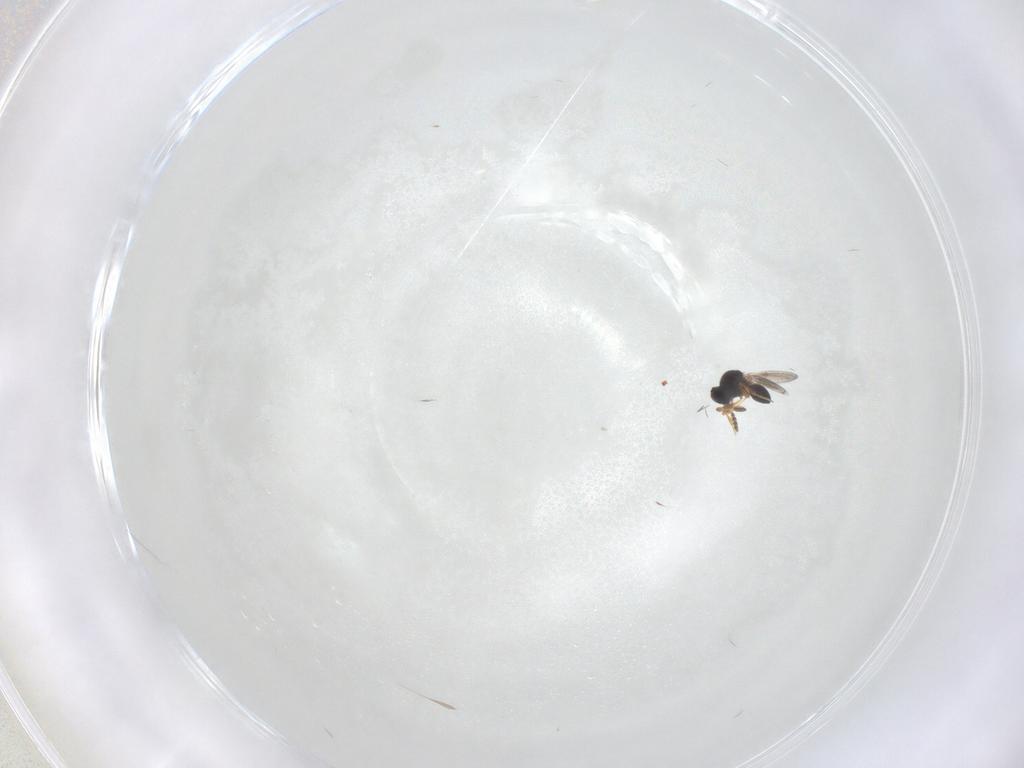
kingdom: Animalia
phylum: Arthropoda
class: Insecta
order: Hymenoptera
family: Platygastridae
